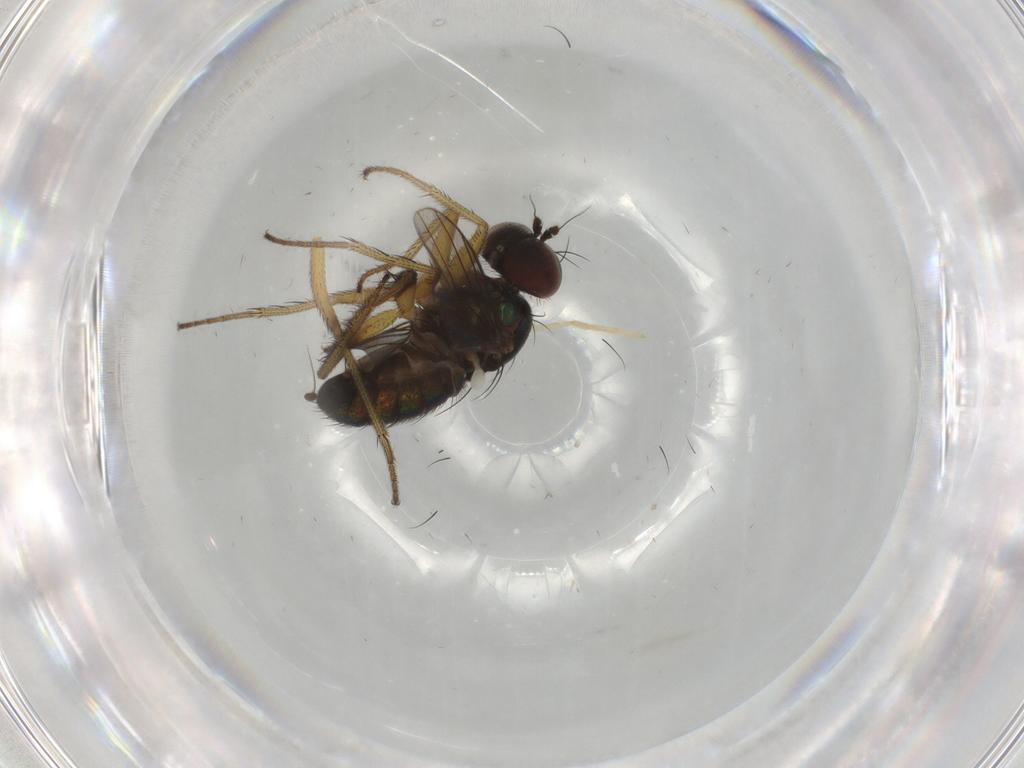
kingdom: Animalia
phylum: Arthropoda
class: Insecta
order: Diptera
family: Dolichopodidae
